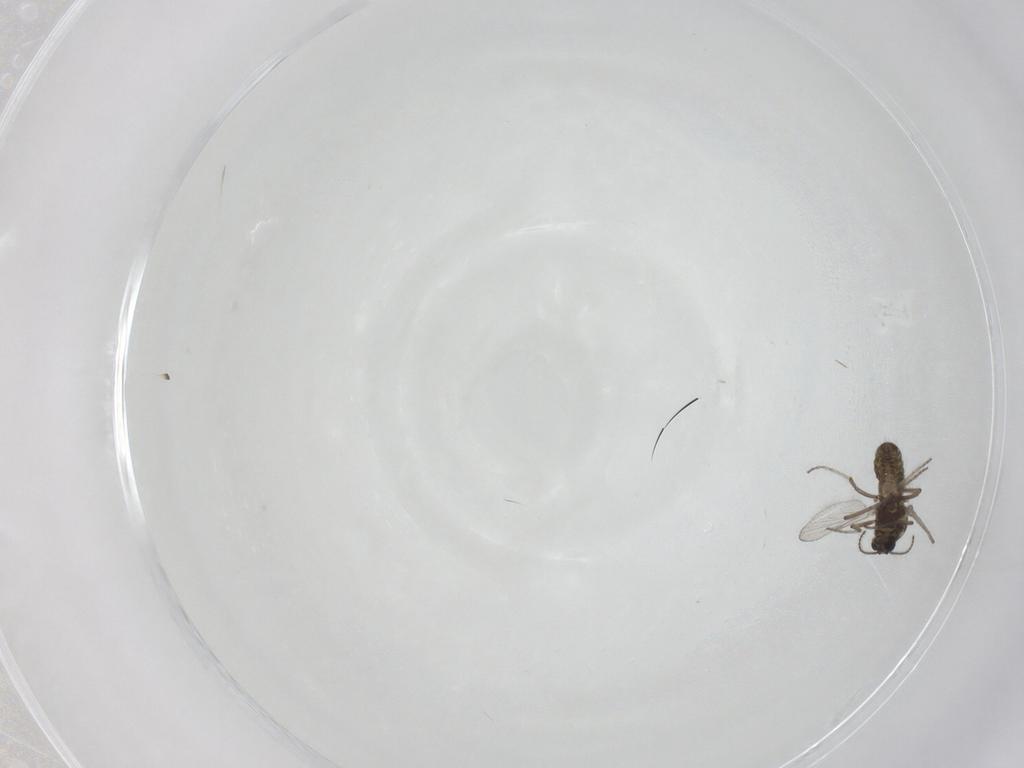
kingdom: Animalia
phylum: Arthropoda
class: Insecta
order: Diptera
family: Ceratopogonidae
